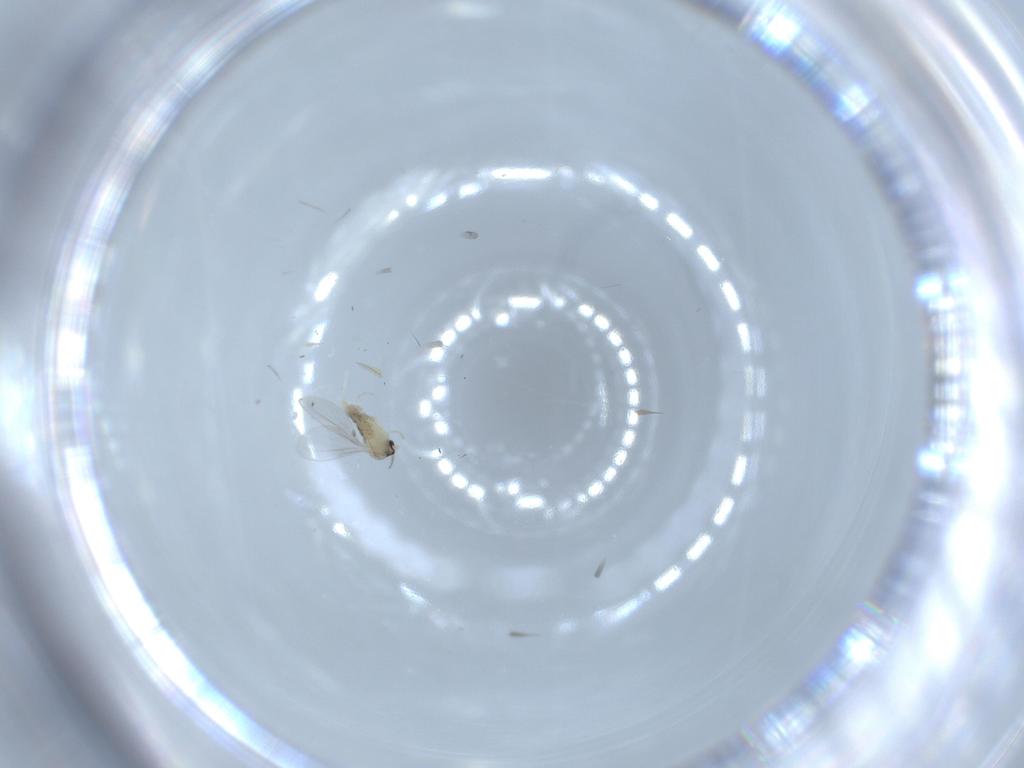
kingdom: Animalia
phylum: Arthropoda
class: Insecta
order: Diptera
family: Cecidomyiidae
